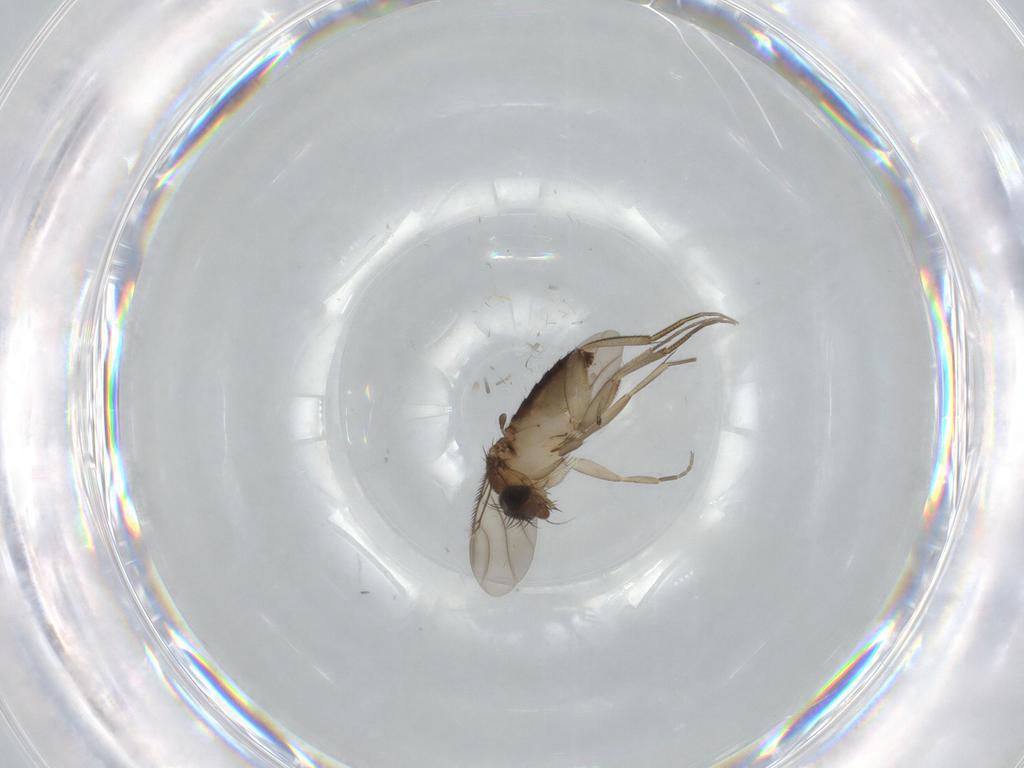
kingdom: Animalia
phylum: Arthropoda
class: Insecta
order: Diptera
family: Phoridae
